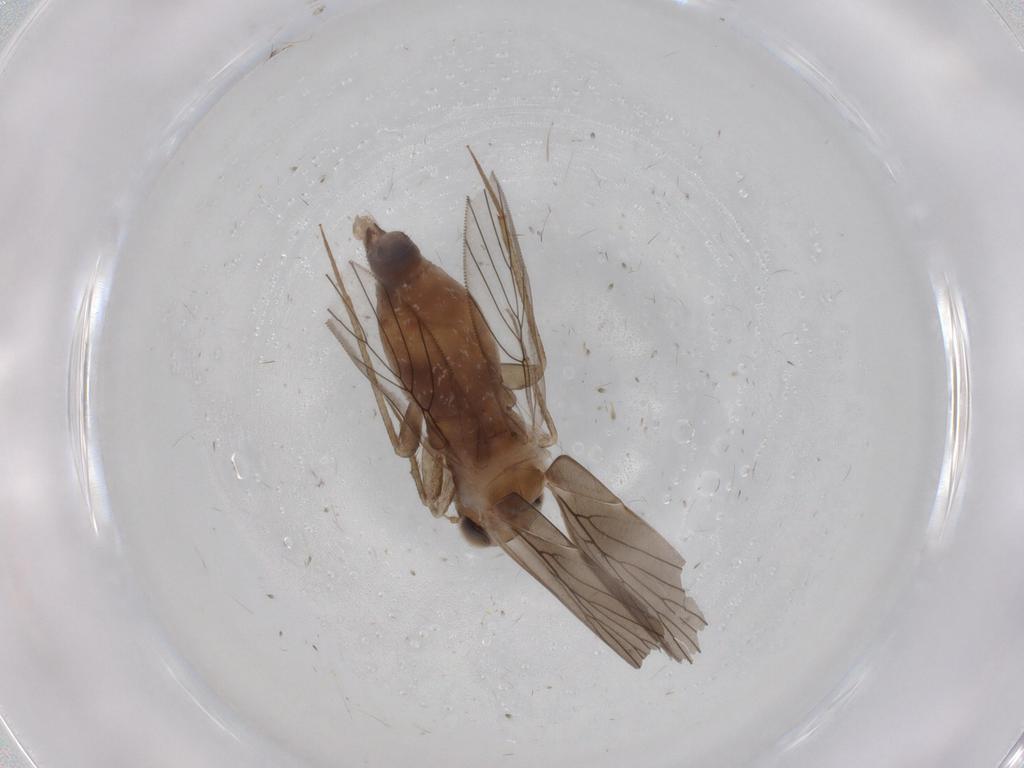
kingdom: Animalia
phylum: Arthropoda
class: Insecta
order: Psocodea
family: Lepidopsocidae
